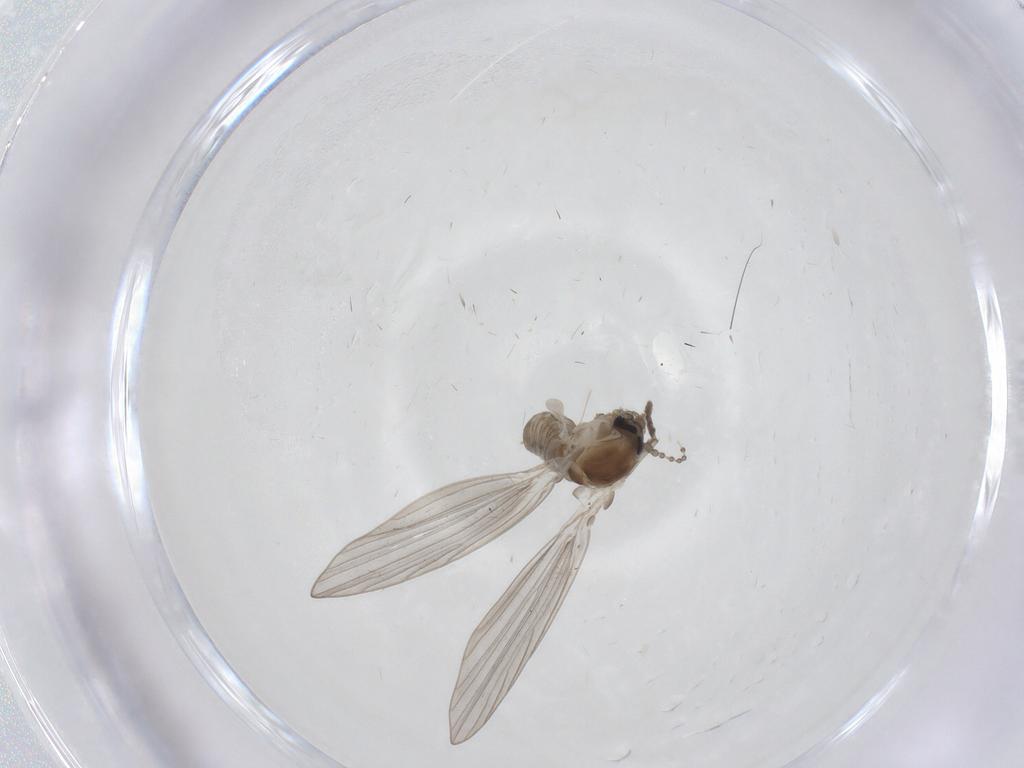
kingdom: Animalia
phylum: Arthropoda
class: Insecta
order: Diptera
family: Psychodidae
